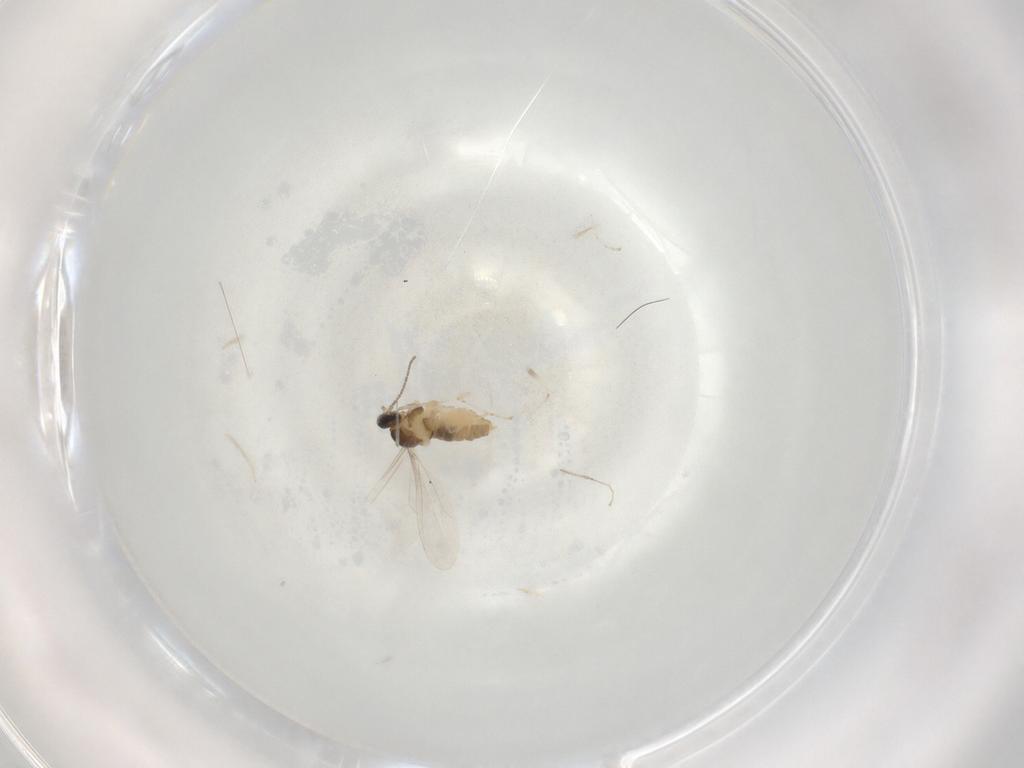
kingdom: Animalia
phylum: Arthropoda
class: Insecta
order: Diptera
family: Cecidomyiidae
